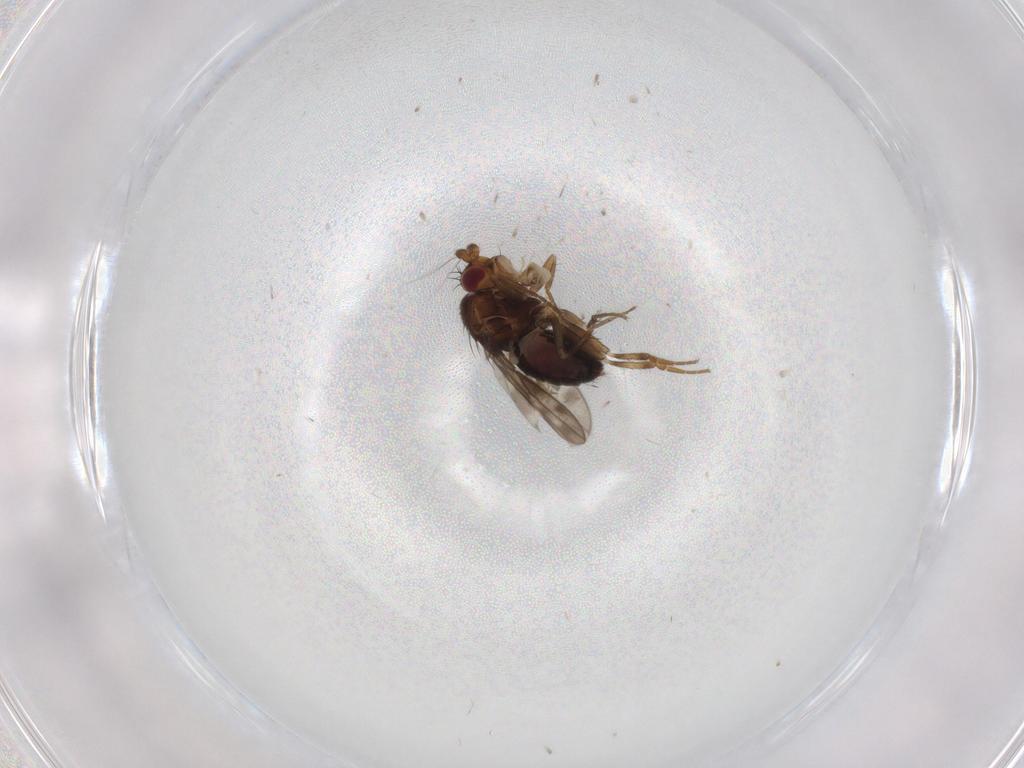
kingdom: Animalia
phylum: Arthropoda
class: Insecta
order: Diptera
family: Sphaeroceridae
